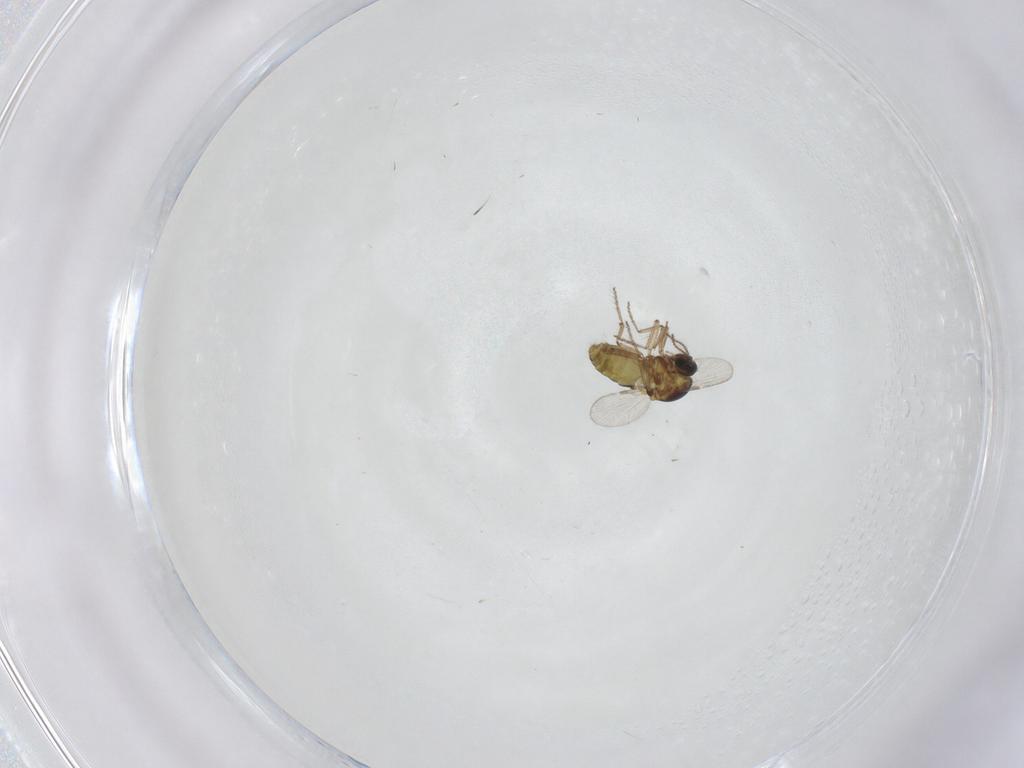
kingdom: Animalia
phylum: Arthropoda
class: Insecta
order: Diptera
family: Ceratopogonidae
